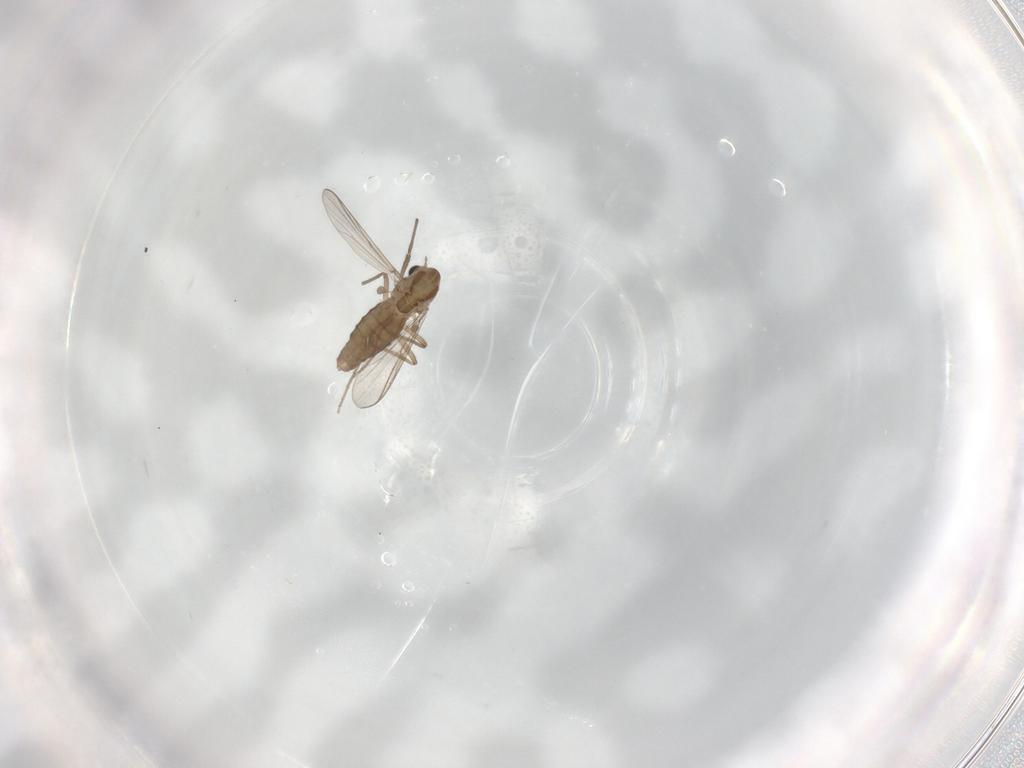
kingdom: Animalia
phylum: Arthropoda
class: Insecta
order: Diptera
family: Chironomidae
